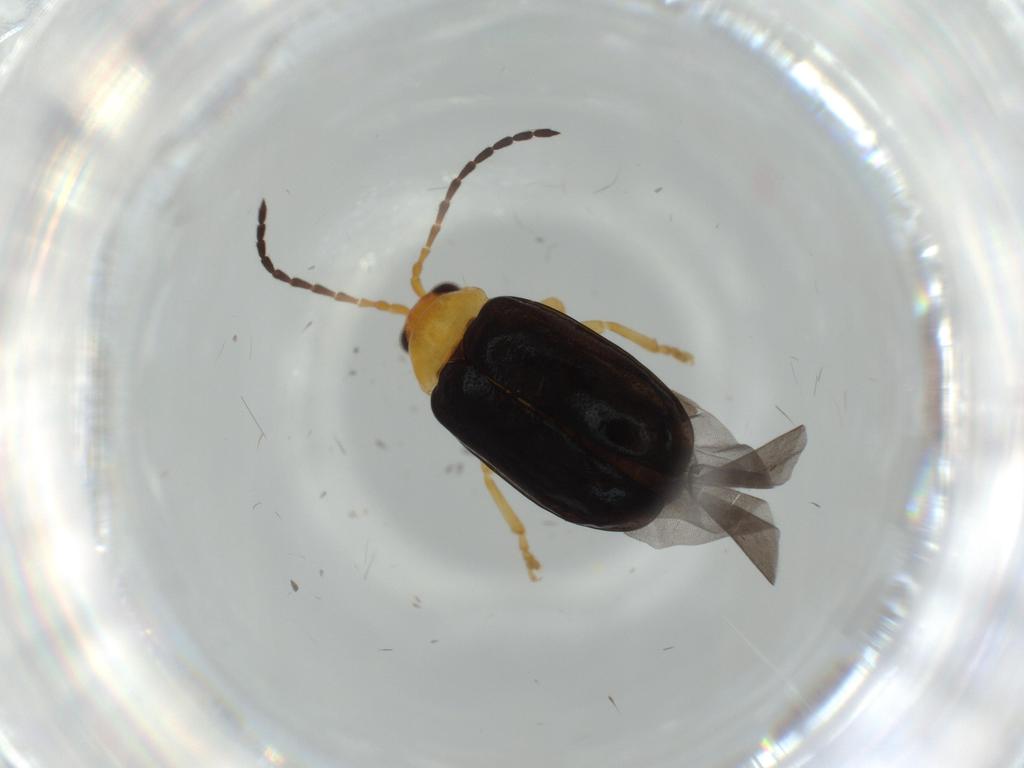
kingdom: Animalia
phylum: Arthropoda
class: Insecta
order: Coleoptera
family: Chrysomelidae
